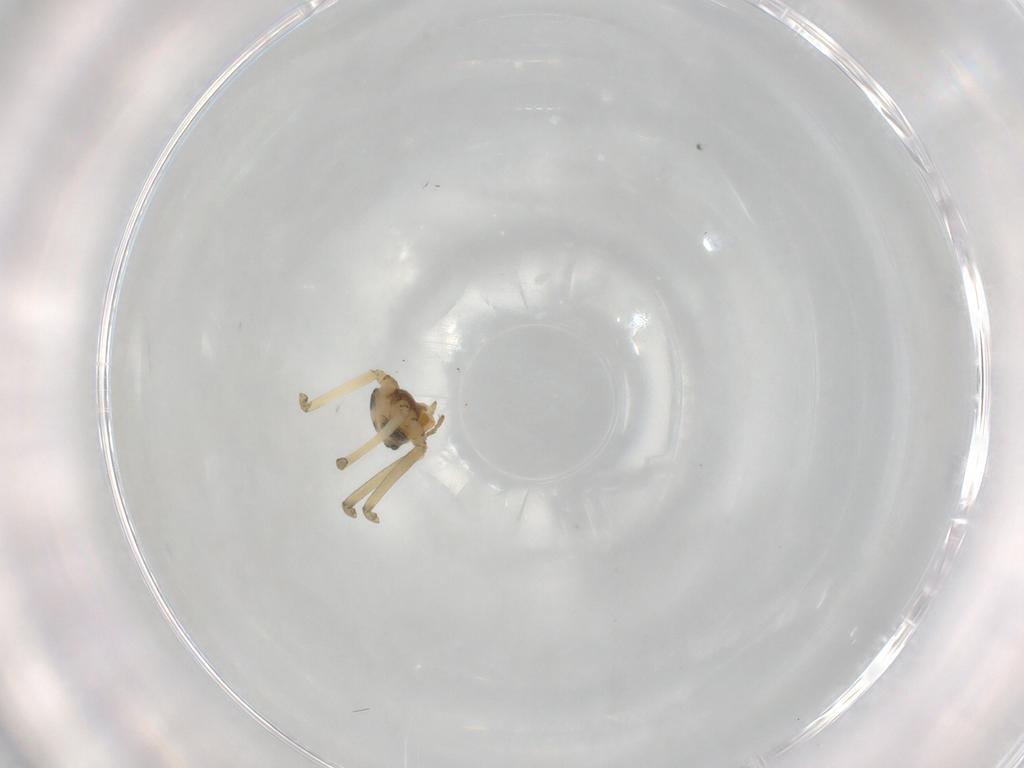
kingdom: Animalia
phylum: Arthropoda
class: Arachnida
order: Araneae
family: Linyphiidae
